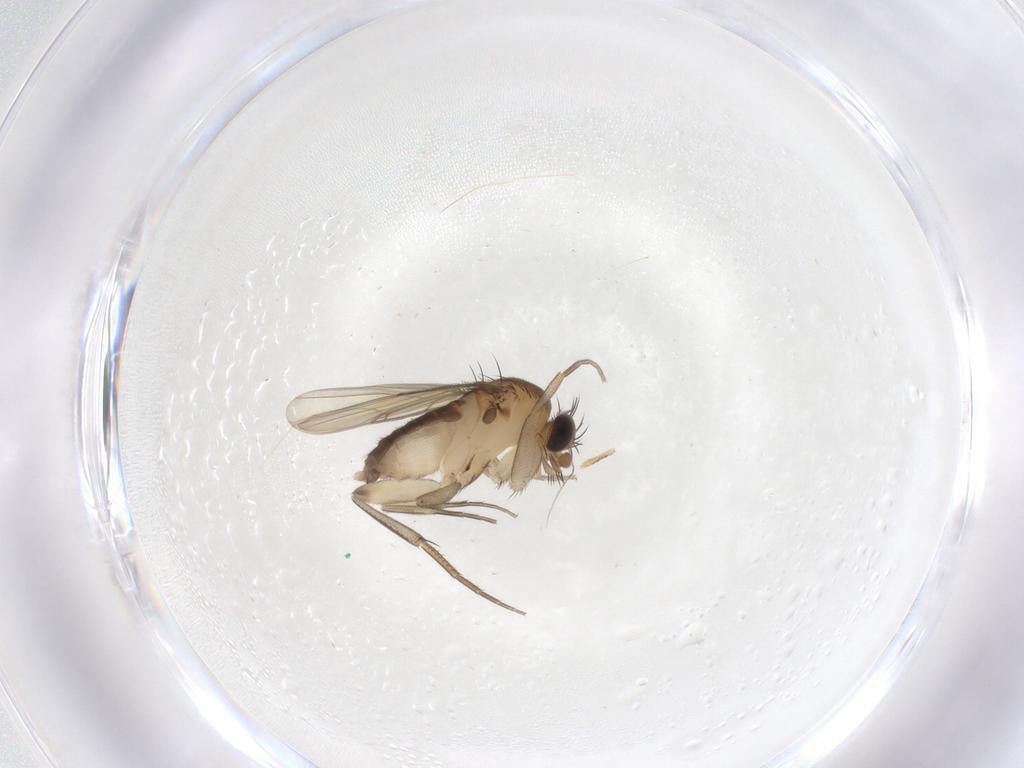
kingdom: Animalia
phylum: Arthropoda
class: Insecta
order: Diptera
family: Phoridae
